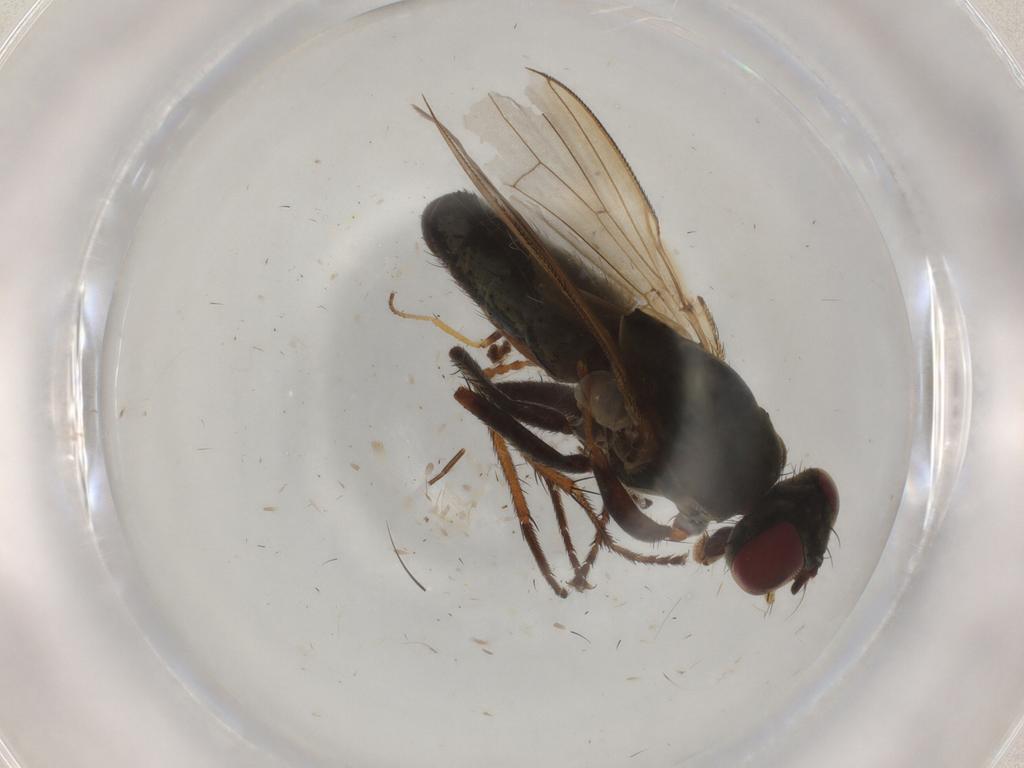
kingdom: Animalia
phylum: Arthropoda
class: Insecta
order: Diptera
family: Chloropidae
